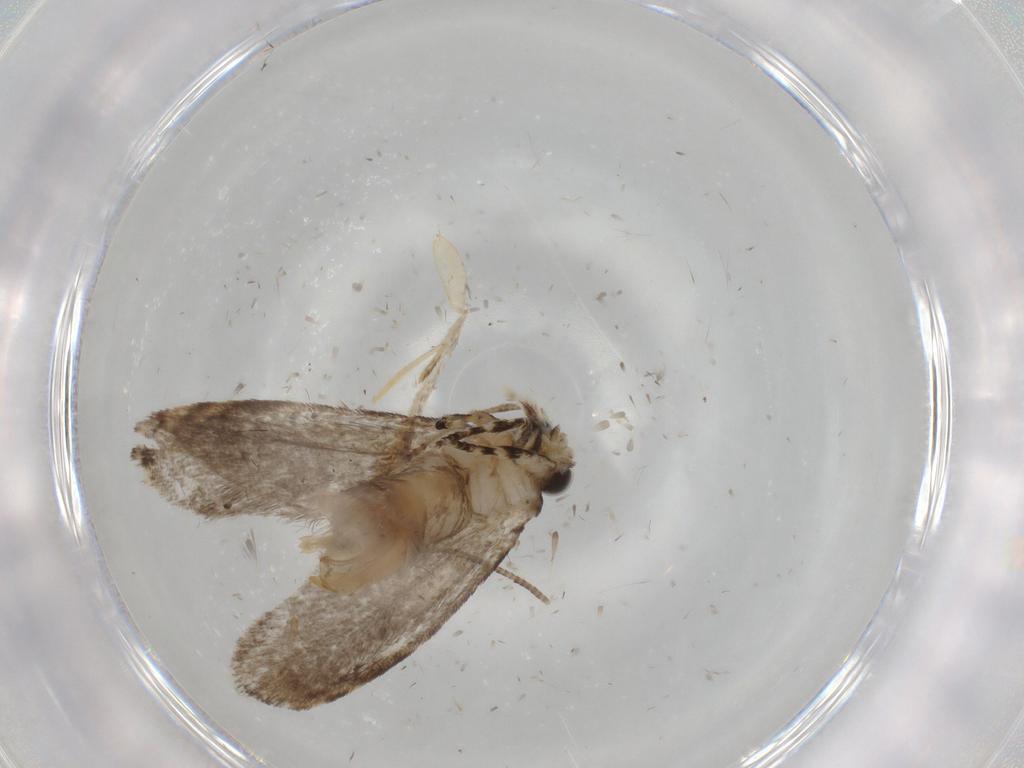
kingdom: Animalia
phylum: Arthropoda
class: Insecta
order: Lepidoptera
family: Tineidae
